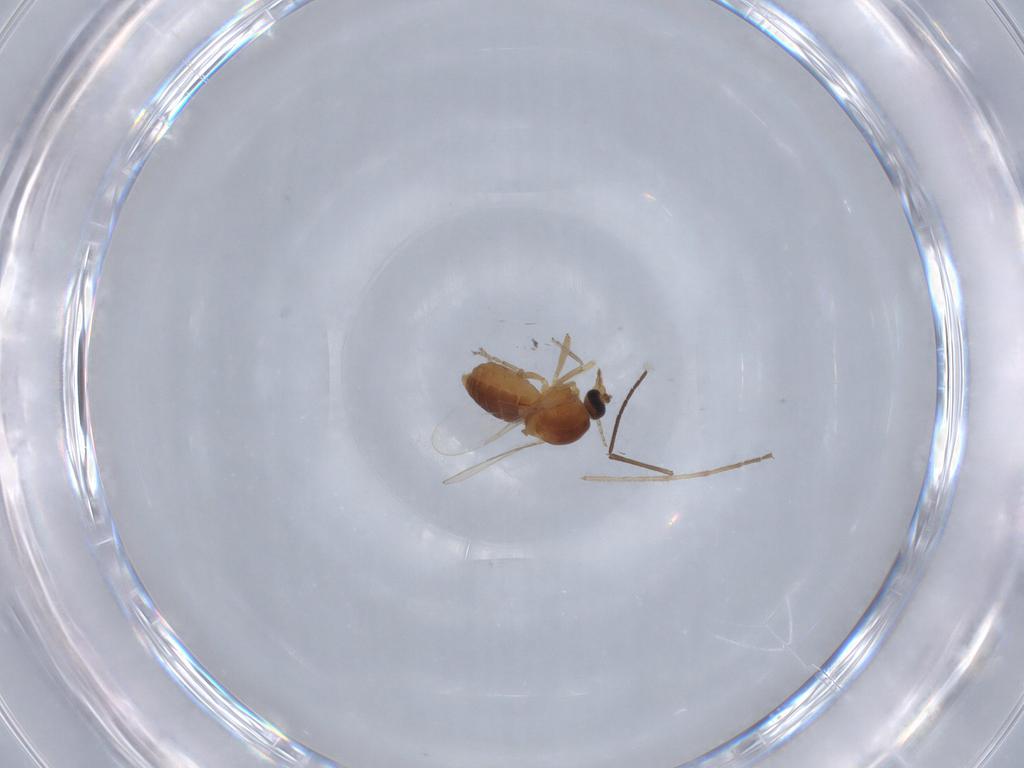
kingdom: Animalia
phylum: Arthropoda
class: Insecta
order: Diptera
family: Ceratopogonidae
